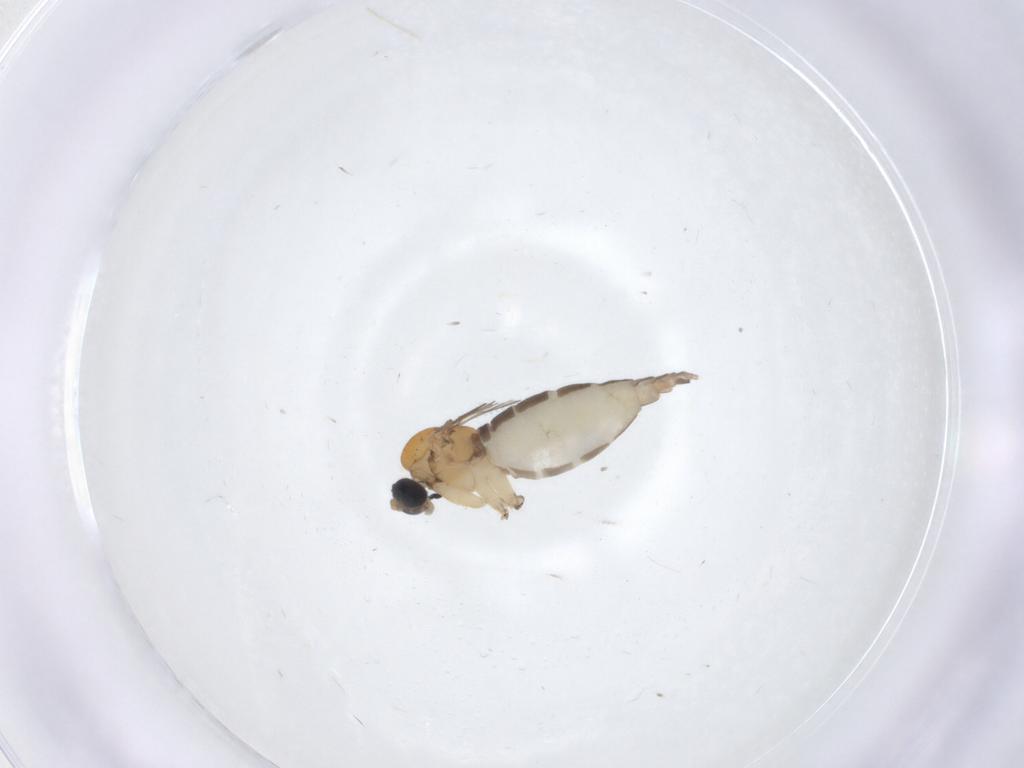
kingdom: Animalia
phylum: Arthropoda
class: Insecta
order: Diptera
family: Sciaridae
